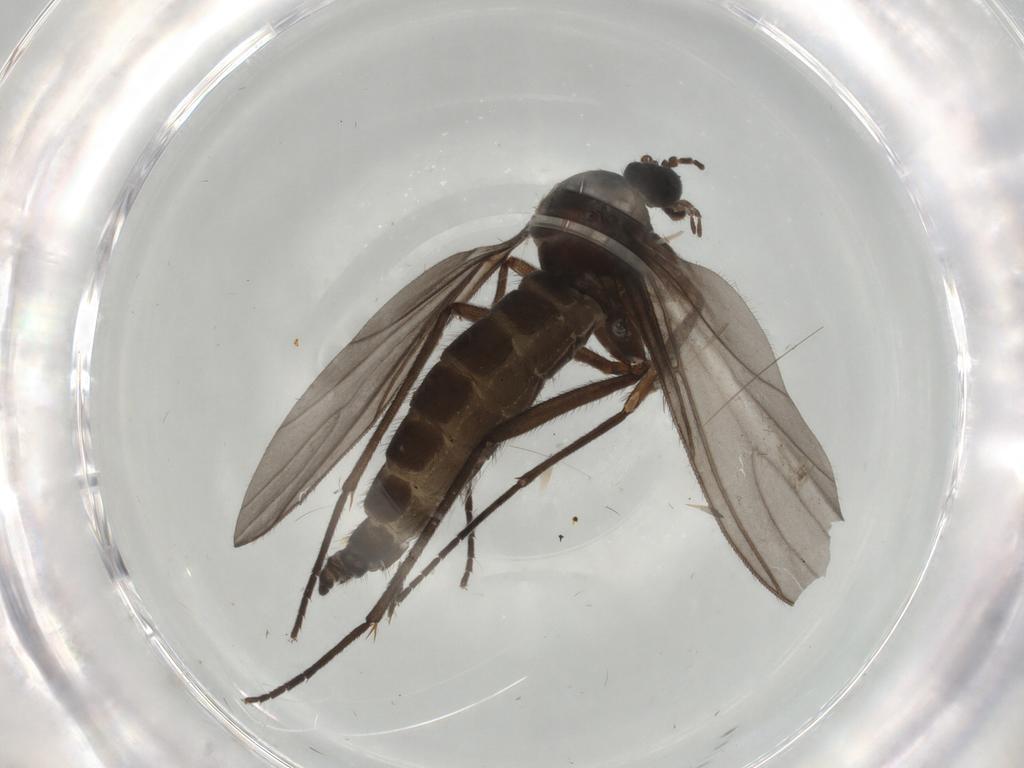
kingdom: Animalia
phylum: Arthropoda
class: Insecta
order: Diptera
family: Sciaridae
